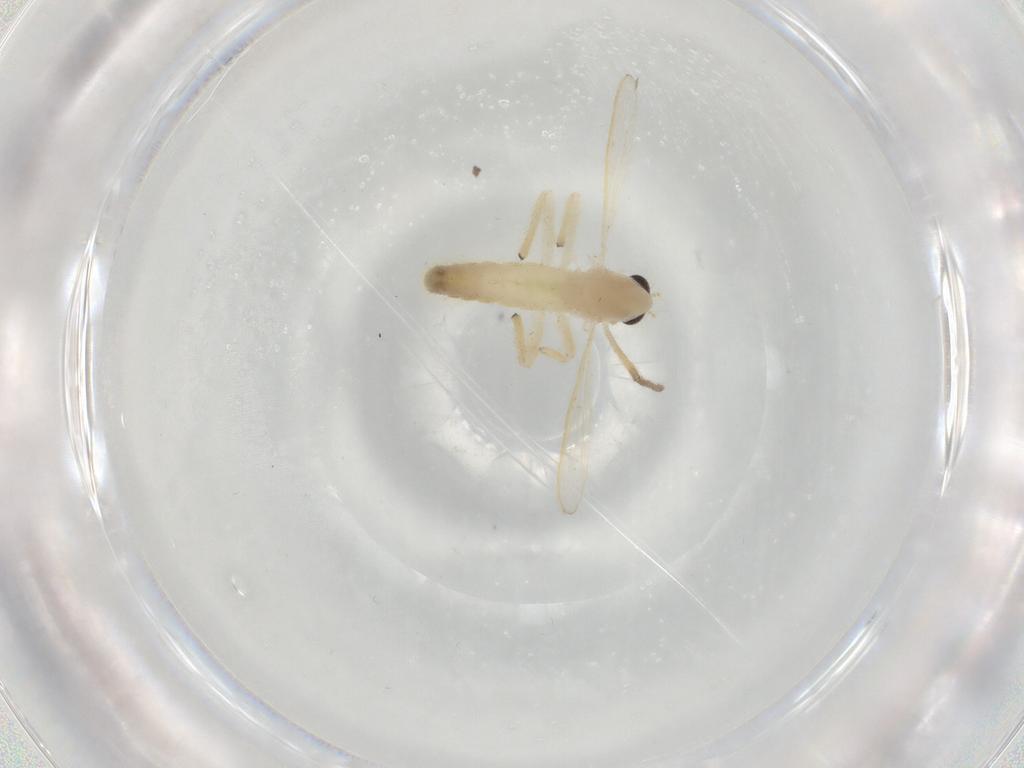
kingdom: Animalia
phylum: Arthropoda
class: Insecta
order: Diptera
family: Chironomidae
